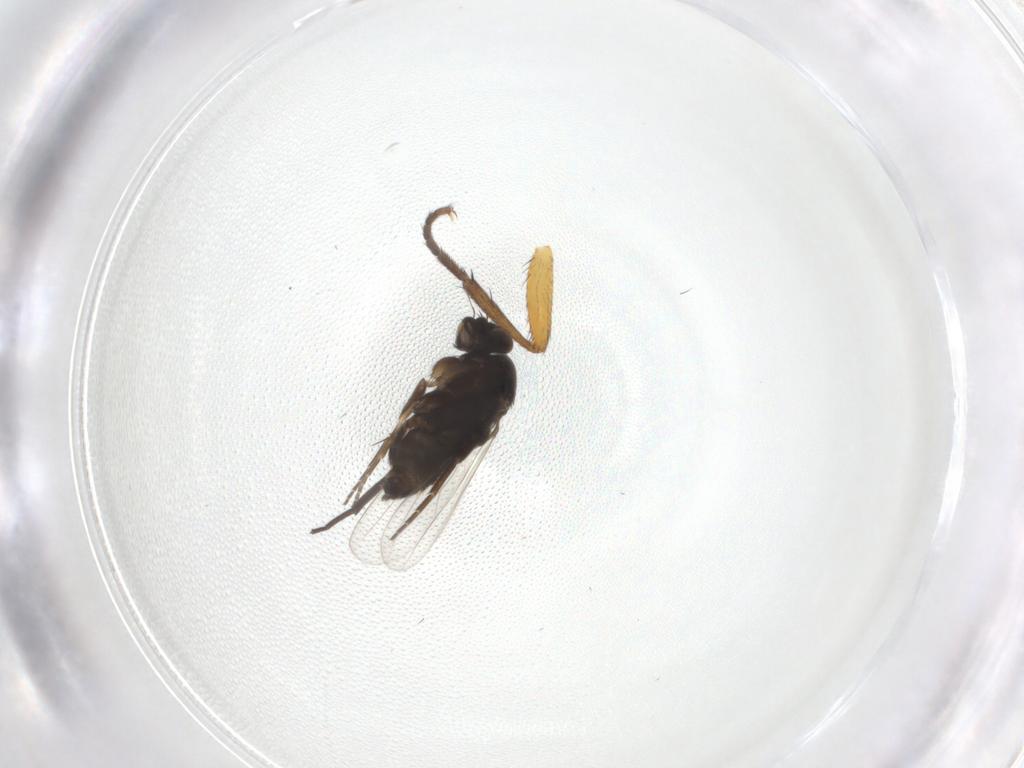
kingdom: Animalia
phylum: Arthropoda
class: Insecta
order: Diptera
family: Phoridae
